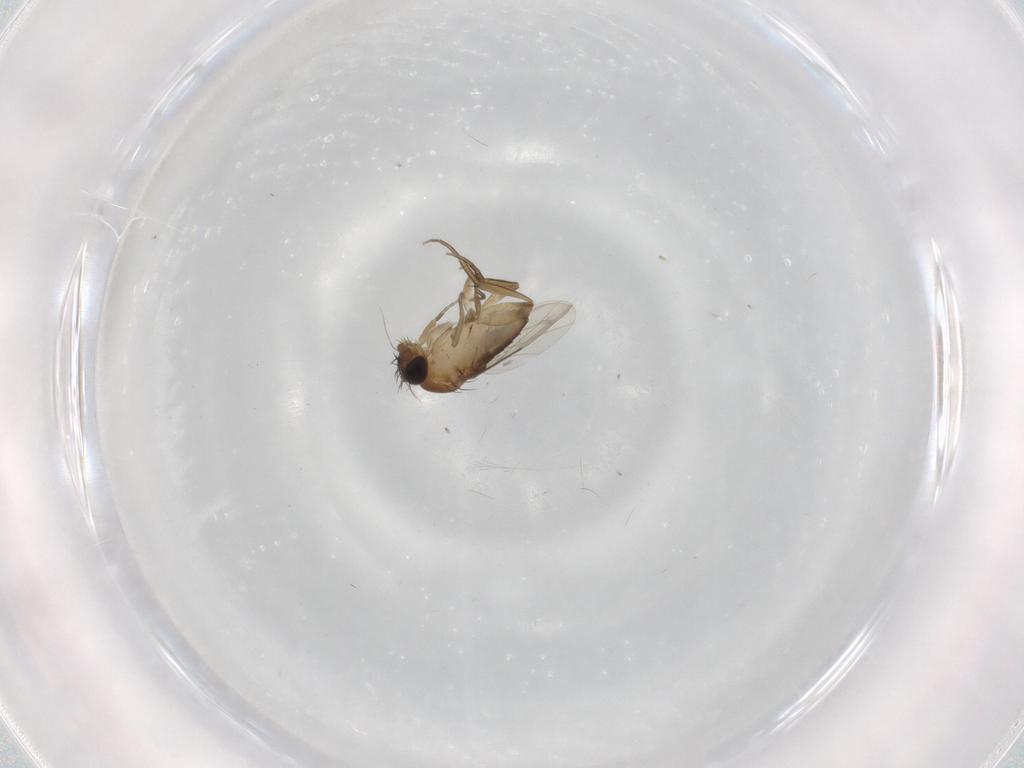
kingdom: Animalia
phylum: Arthropoda
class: Insecta
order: Diptera
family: Phoridae
